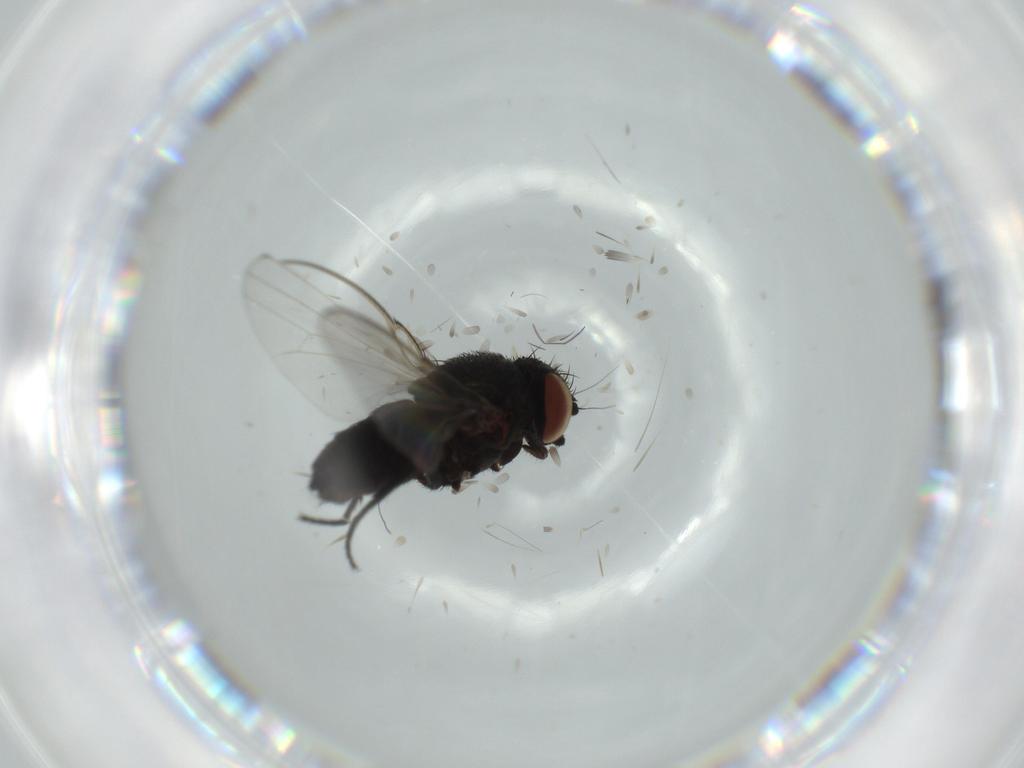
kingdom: Animalia
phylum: Arthropoda
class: Insecta
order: Diptera
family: Milichiidae
